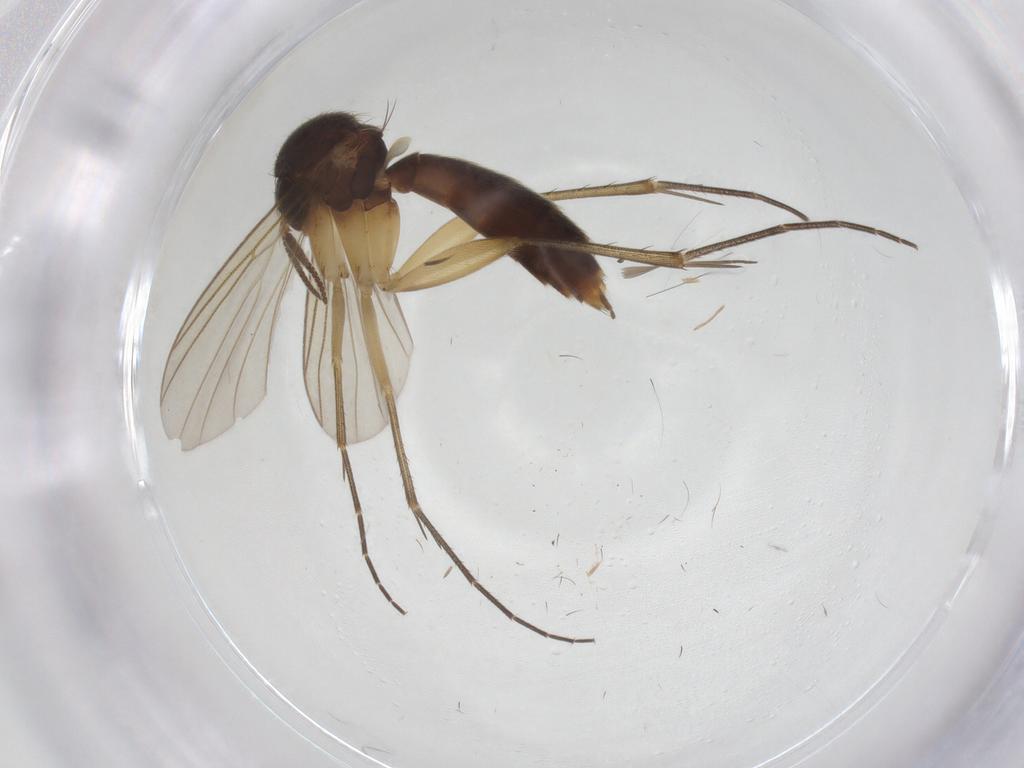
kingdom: Animalia
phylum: Arthropoda
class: Insecta
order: Diptera
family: Mycetophilidae
